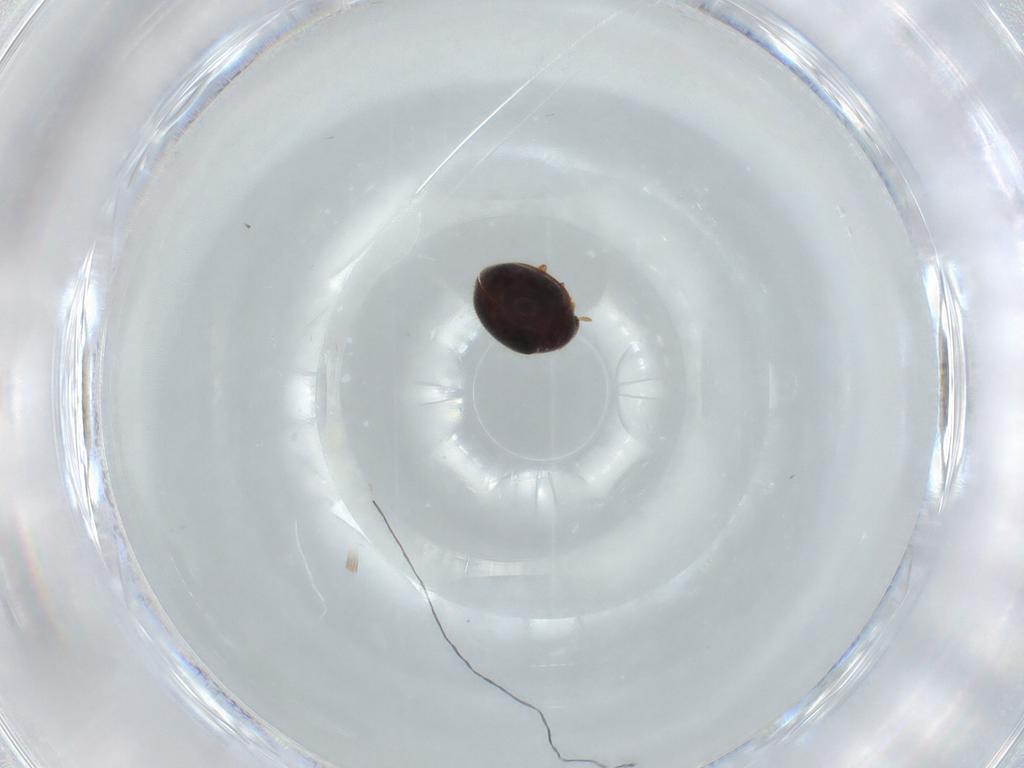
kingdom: Animalia
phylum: Arthropoda
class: Insecta
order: Coleoptera
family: Coccinellidae
